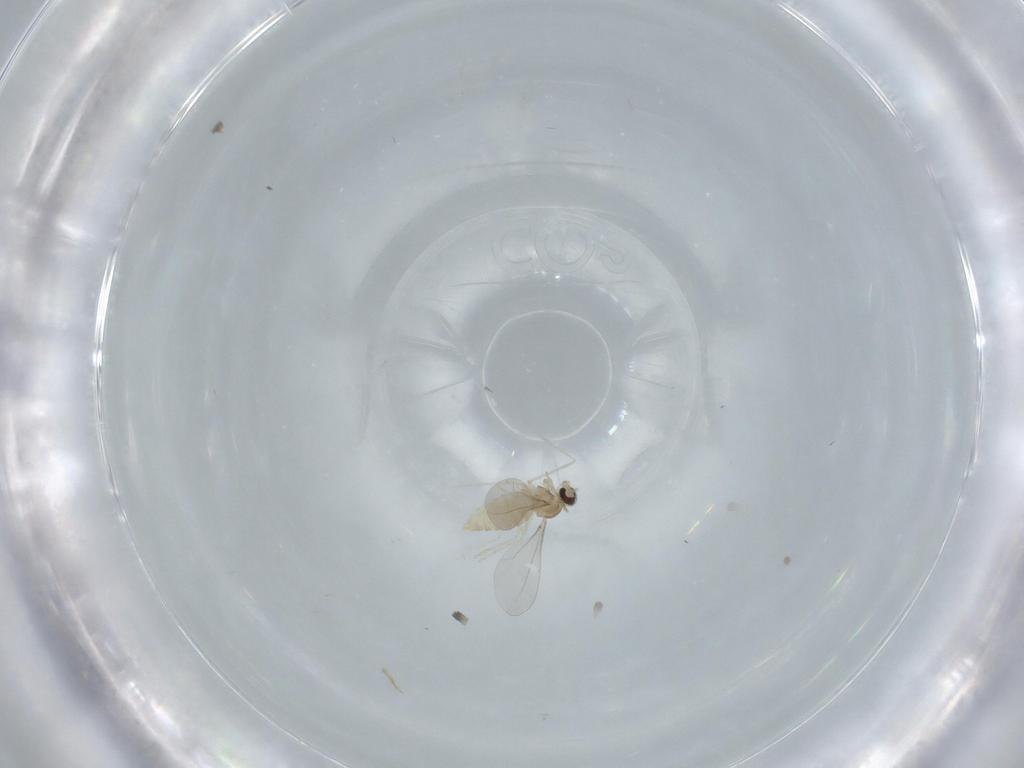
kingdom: Animalia
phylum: Arthropoda
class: Insecta
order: Diptera
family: Cecidomyiidae
